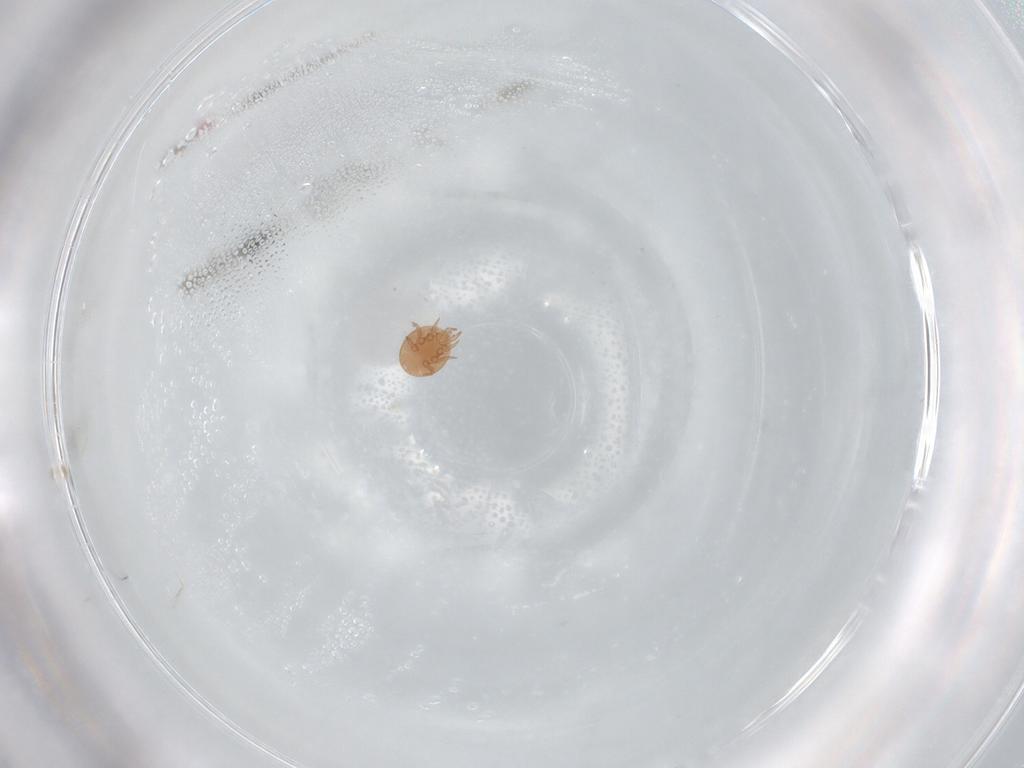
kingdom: Animalia
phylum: Arthropoda
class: Arachnida
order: Mesostigmata
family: Trematuridae
